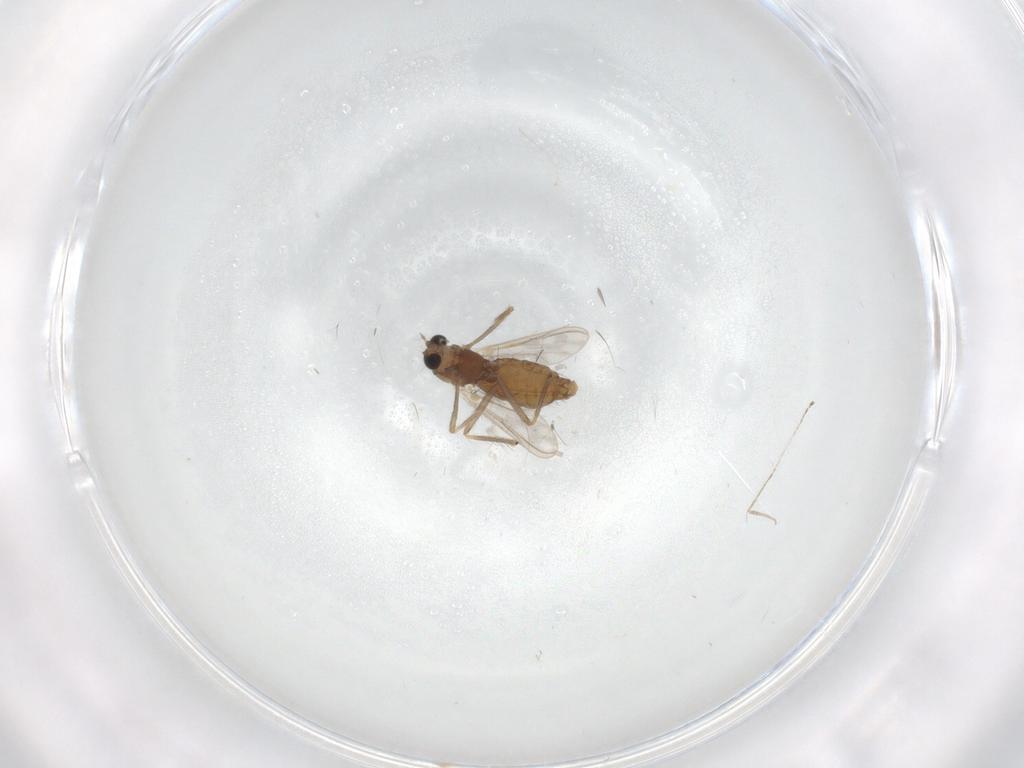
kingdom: Animalia
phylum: Arthropoda
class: Insecta
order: Diptera
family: Chironomidae
